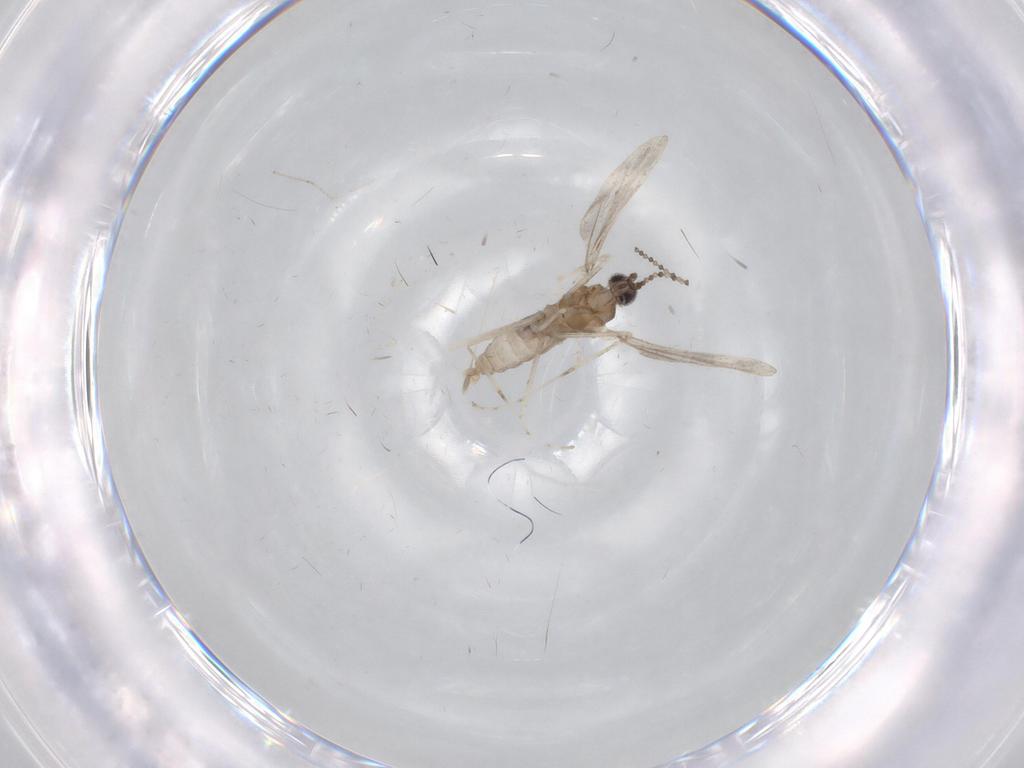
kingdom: Animalia
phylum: Arthropoda
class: Insecta
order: Diptera
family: Cecidomyiidae
